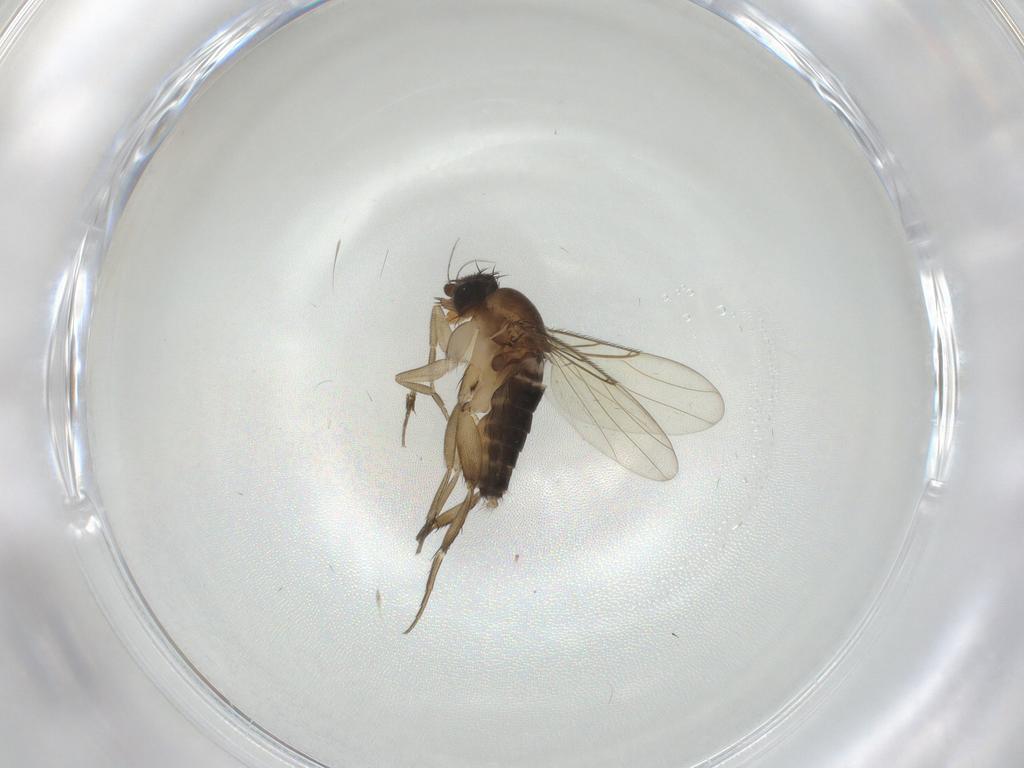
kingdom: Animalia
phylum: Arthropoda
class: Insecta
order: Diptera
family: Phoridae
